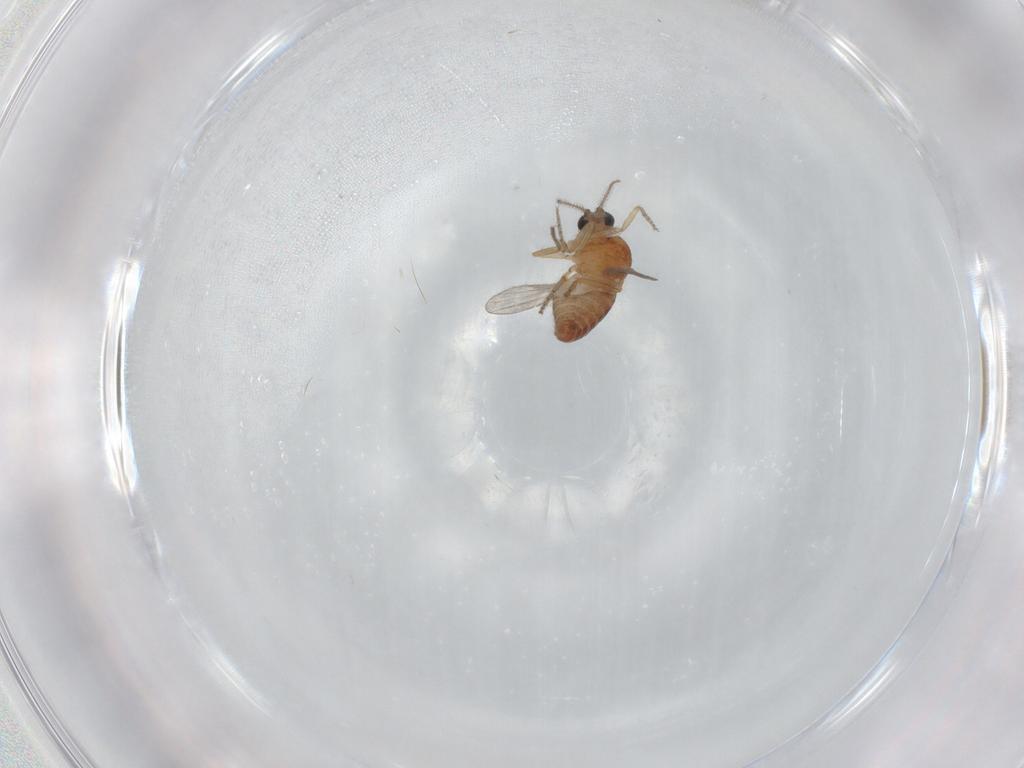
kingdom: Animalia
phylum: Arthropoda
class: Insecta
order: Diptera
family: Ceratopogonidae
